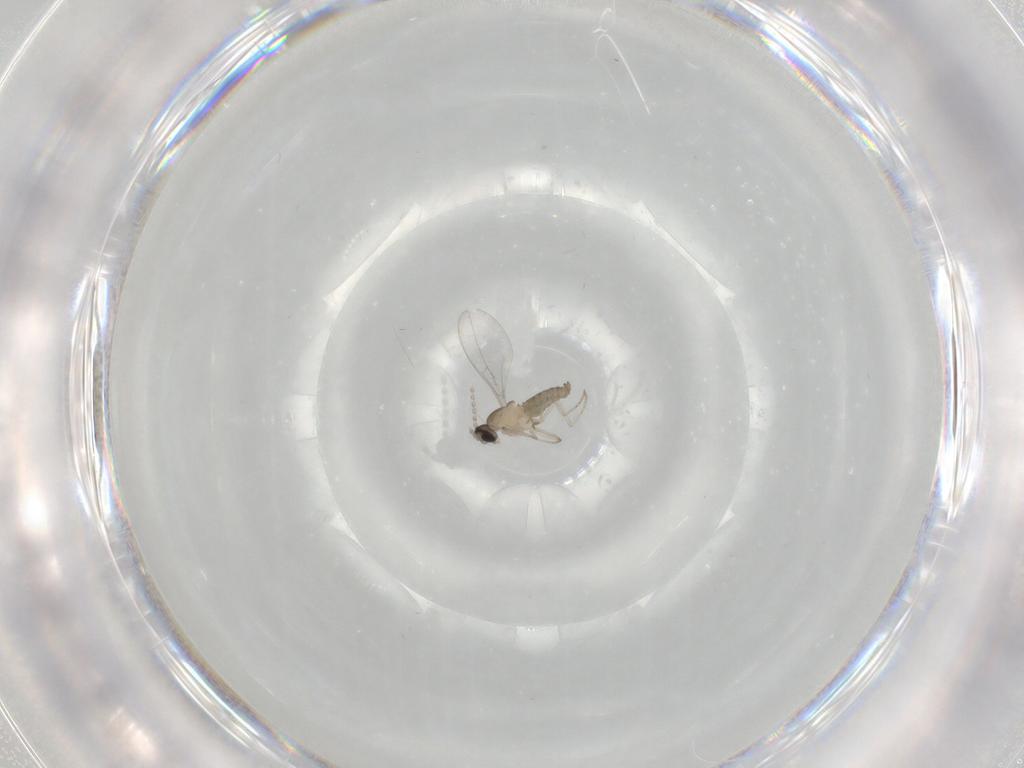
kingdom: Animalia
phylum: Arthropoda
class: Insecta
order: Diptera
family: Cecidomyiidae
